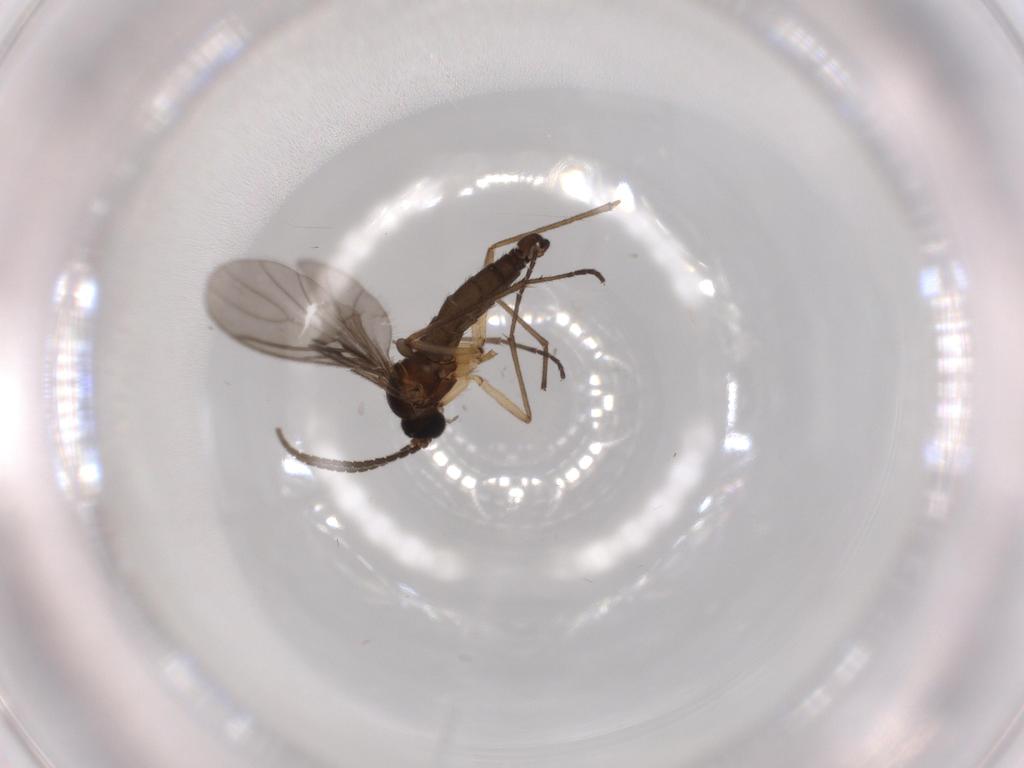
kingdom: Animalia
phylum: Arthropoda
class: Insecta
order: Diptera
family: Sciaridae
